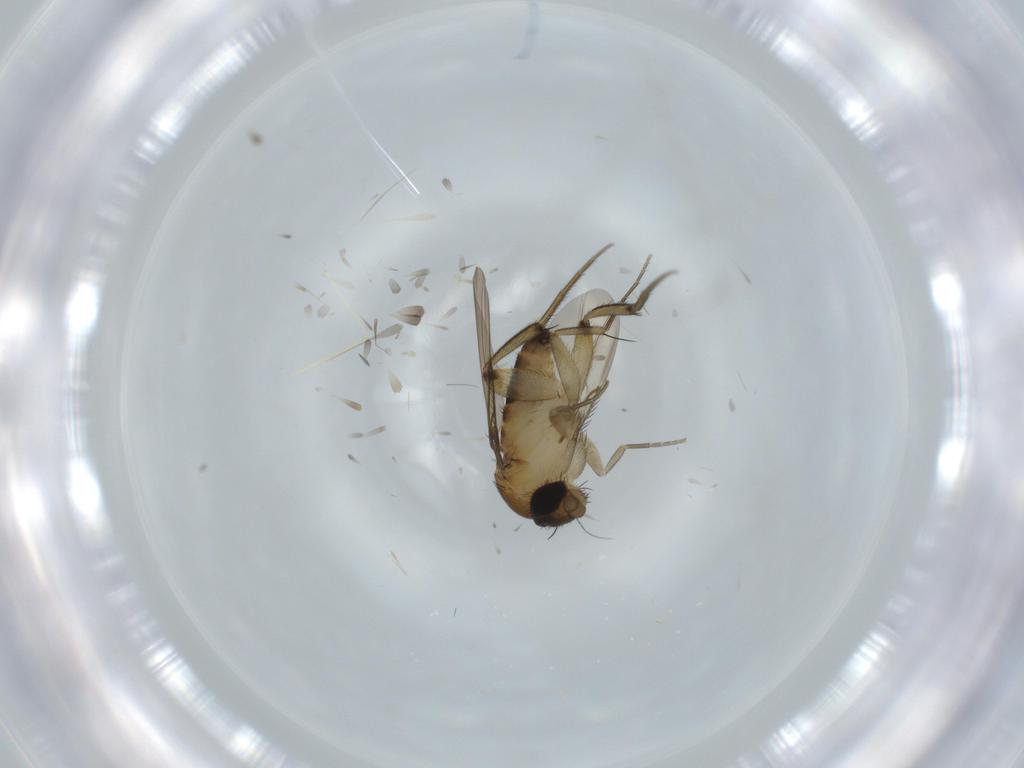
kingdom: Animalia
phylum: Arthropoda
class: Insecta
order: Diptera
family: Phoridae
